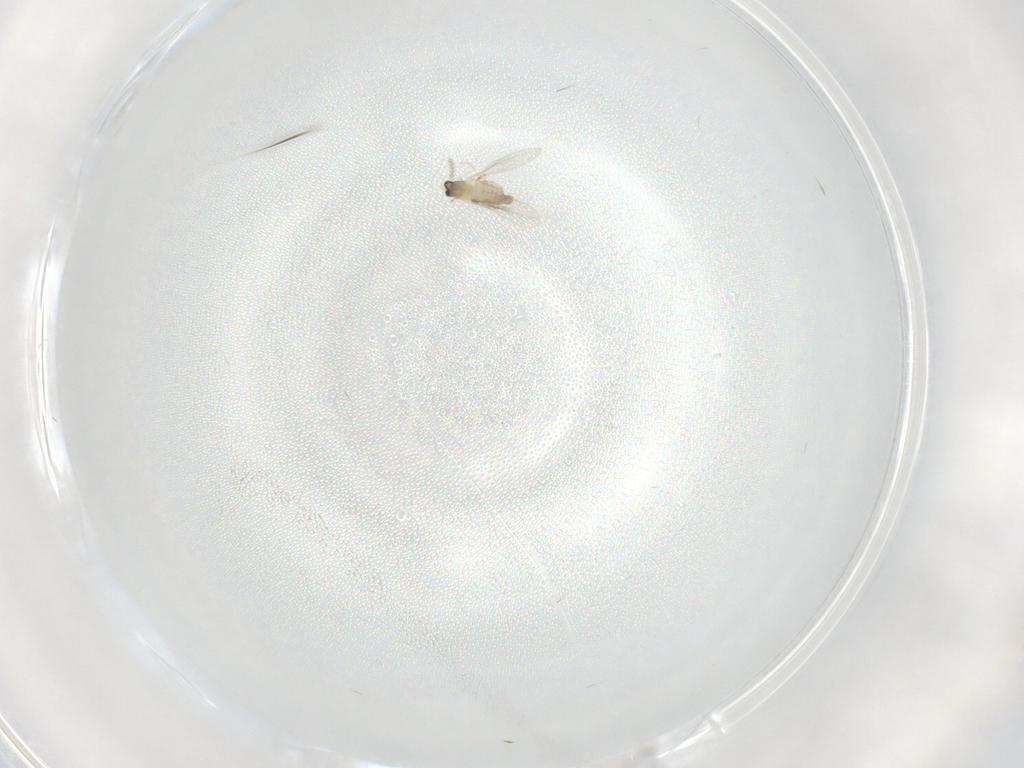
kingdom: Animalia
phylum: Arthropoda
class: Insecta
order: Diptera
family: Phoridae
